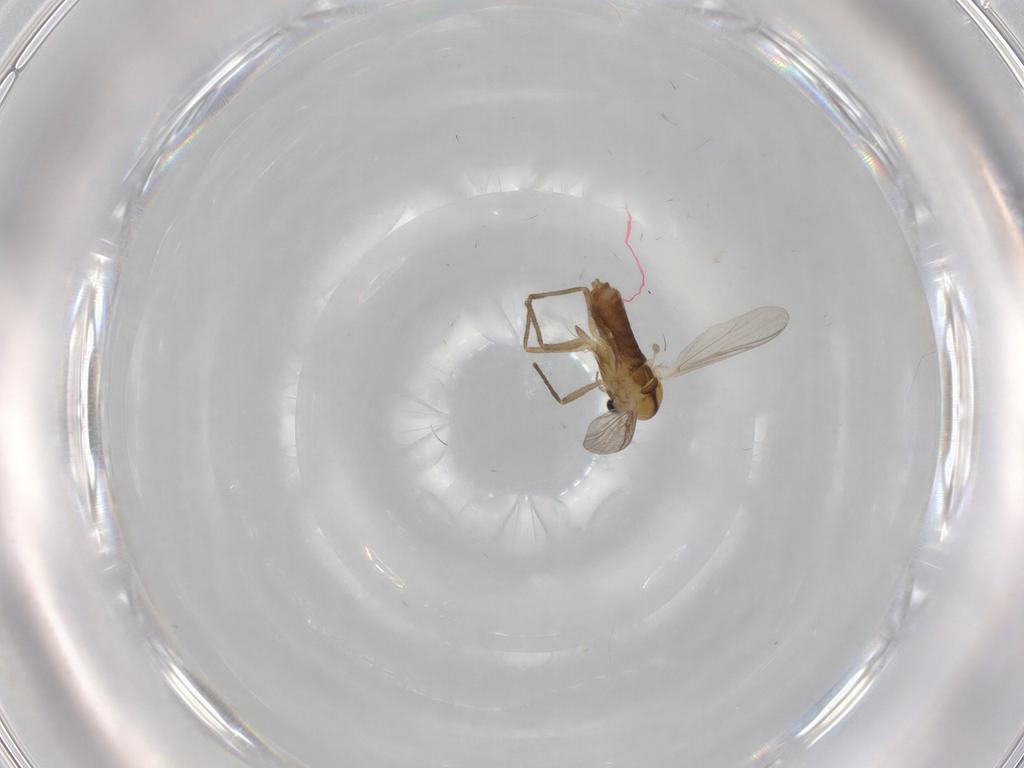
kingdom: Animalia
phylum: Arthropoda
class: Insecta
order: Diptera
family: Chironomidae
